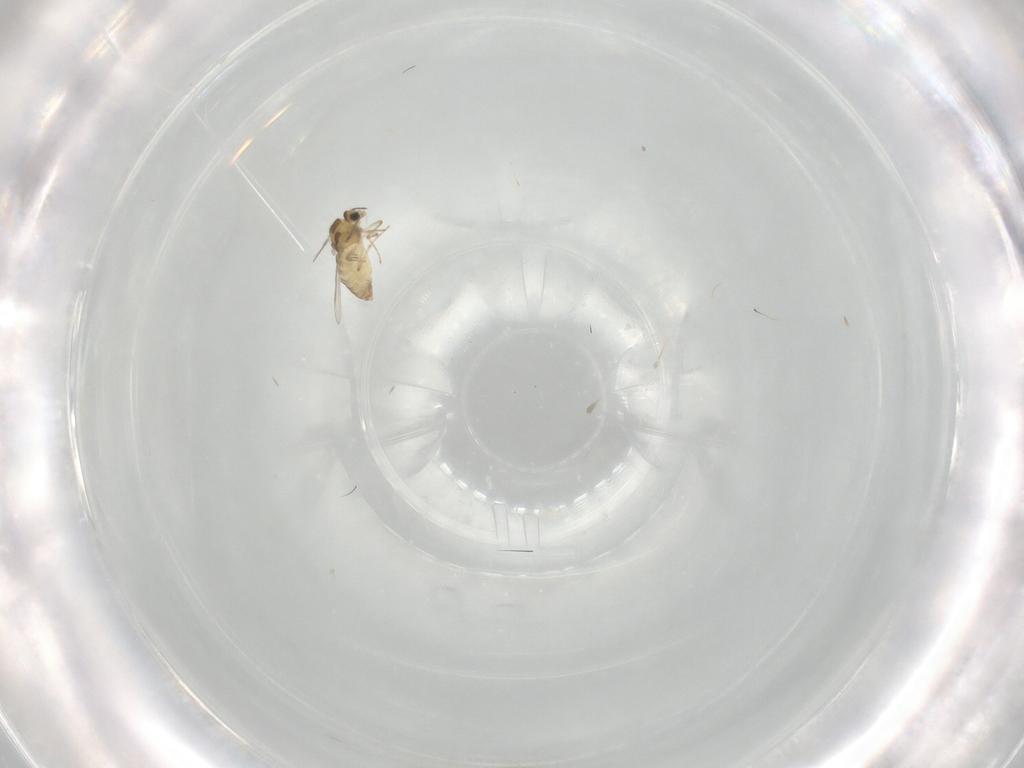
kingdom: Animalia
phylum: Arthropoda
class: Insecta
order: Diptera
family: Chironomidae
